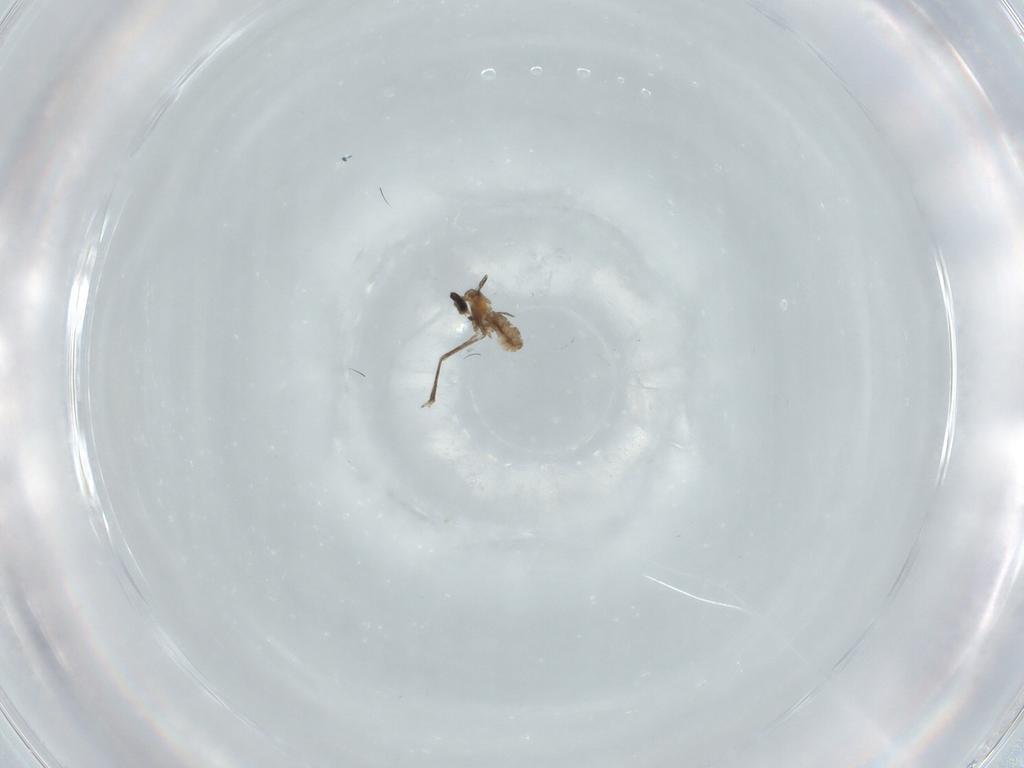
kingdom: Animalia
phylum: Arthropoda
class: Insecta
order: Diptera
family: Cecidomyiidae
